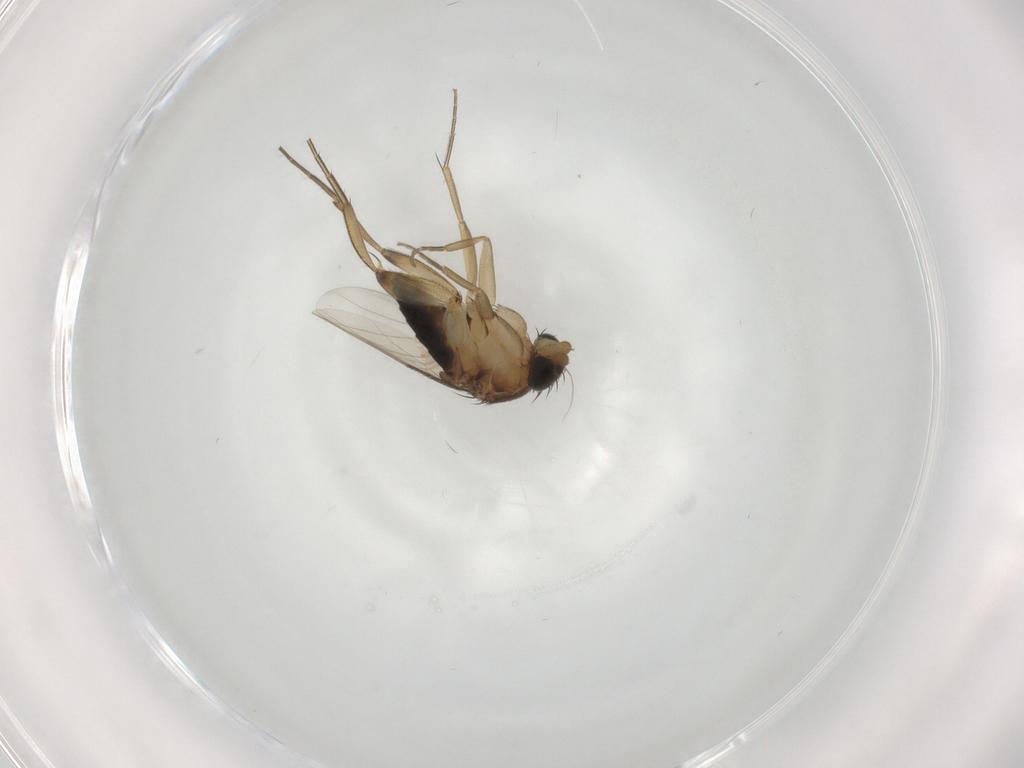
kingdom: Animalia
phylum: Arthropoda
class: Insecta
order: Diptera
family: Phoridae
